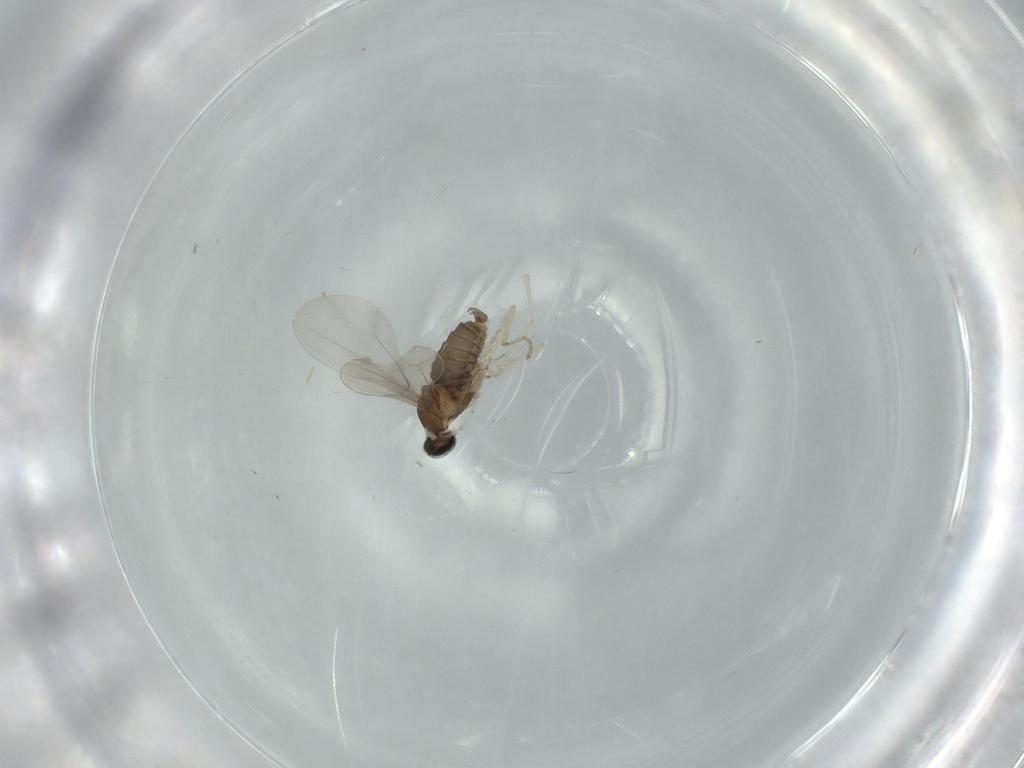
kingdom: Animalia
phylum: Arthropoda
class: Insecta
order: Diptera
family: Cecidomyiidae
